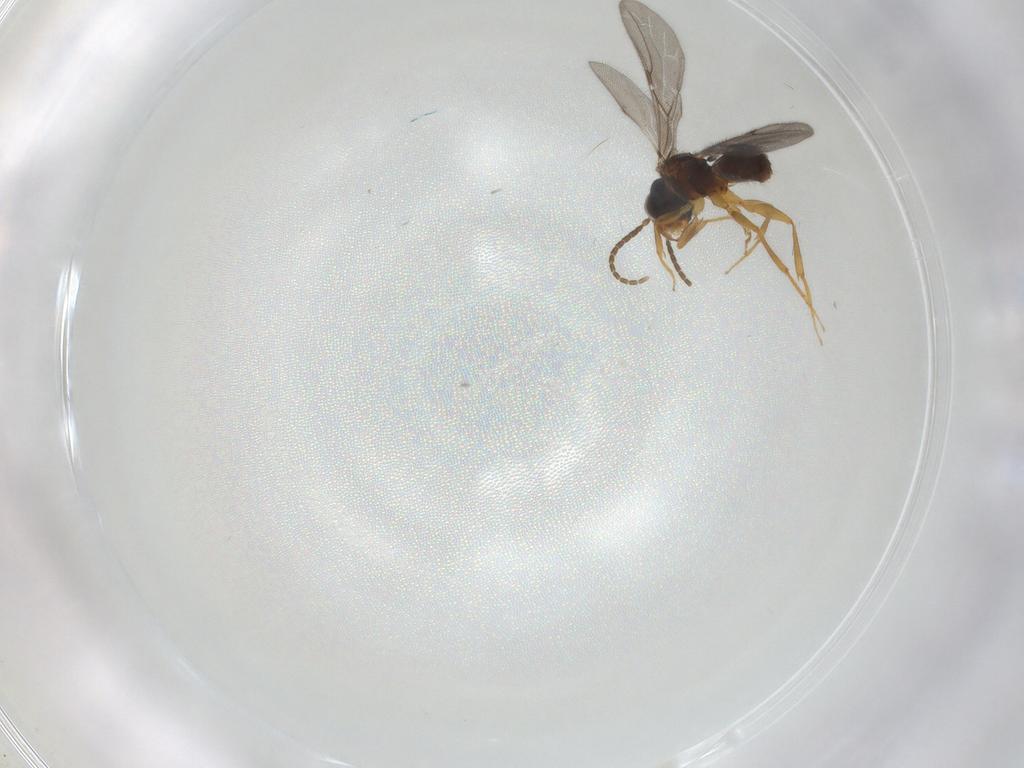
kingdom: Animalia
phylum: Arthropoda
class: Insecta
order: Hymenoptera
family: Bethylidae
